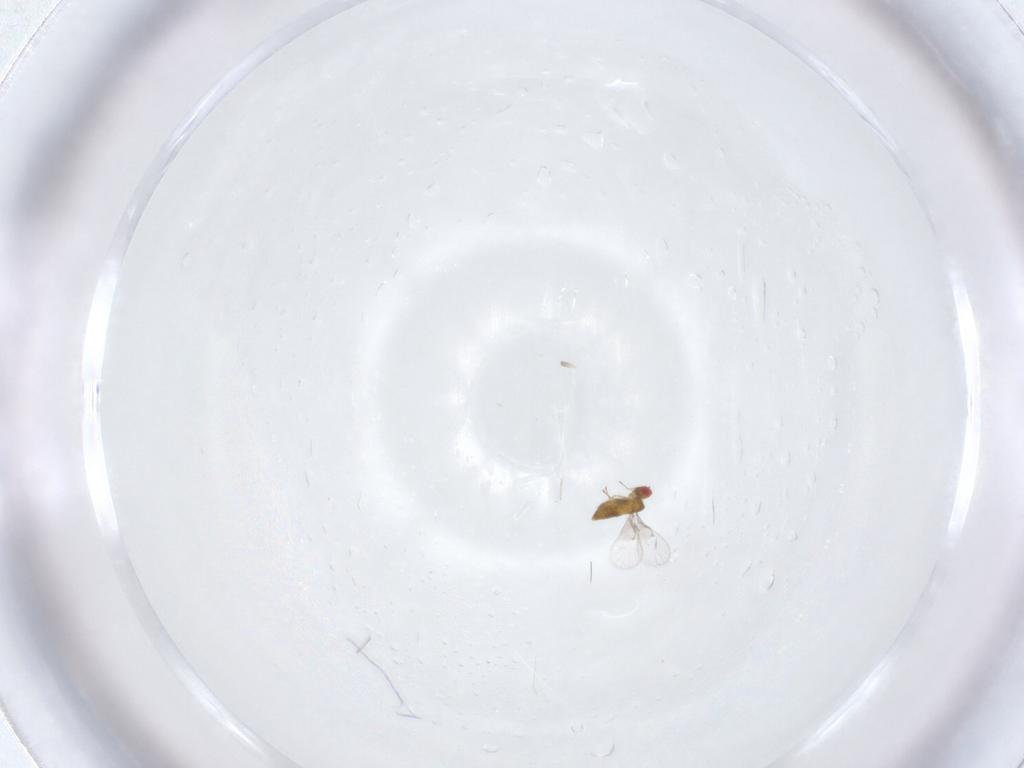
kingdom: Animalia
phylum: Arthropoda
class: Insecta
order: Hymenoptera
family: Trichogrammatidae
